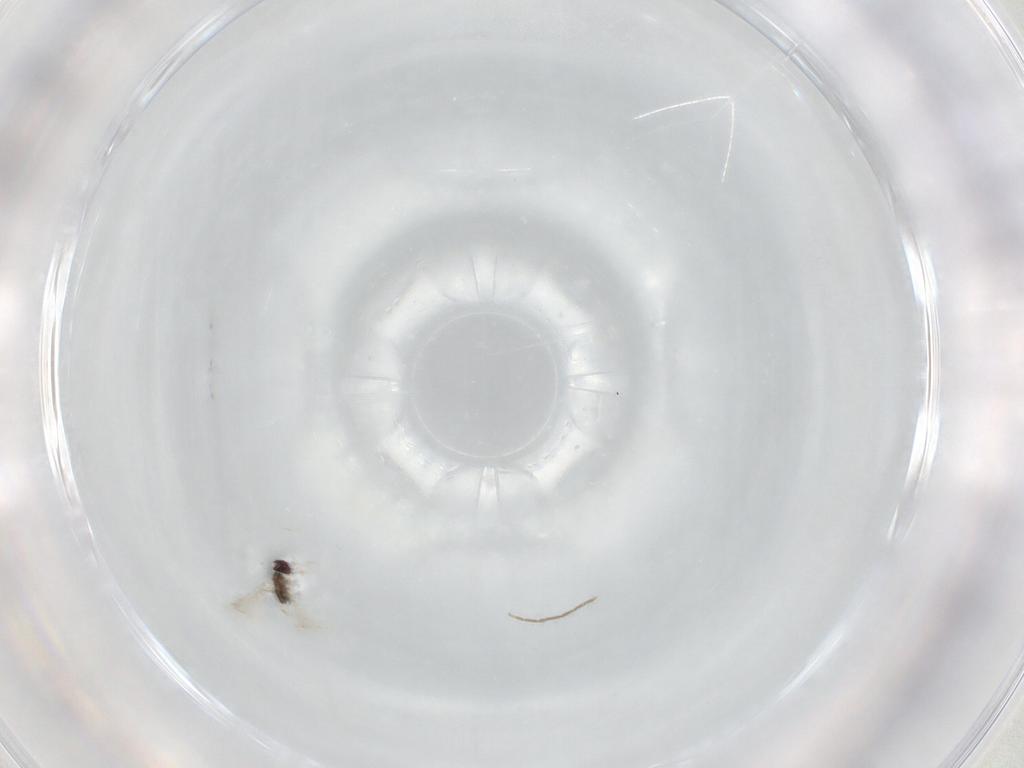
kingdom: Animalia
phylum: Arthropoda
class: Insecta
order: Hymenoptera
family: Braconidae
